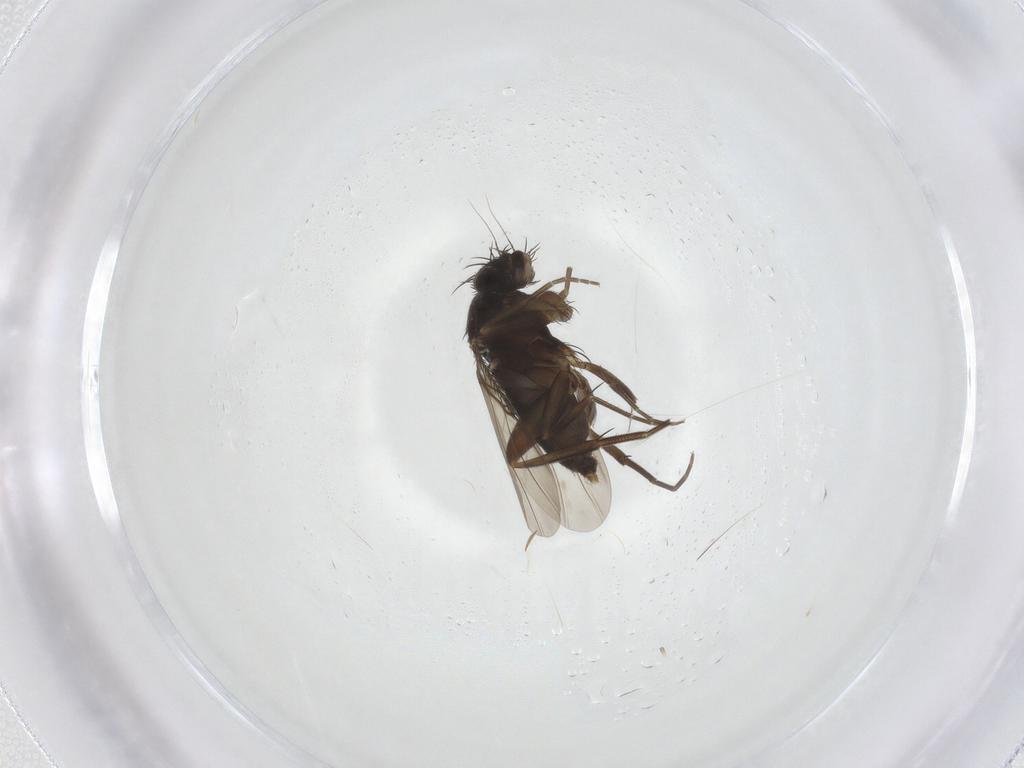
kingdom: Animalia
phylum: Arthropoda
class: Insecta
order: Diptera
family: Phoridae
